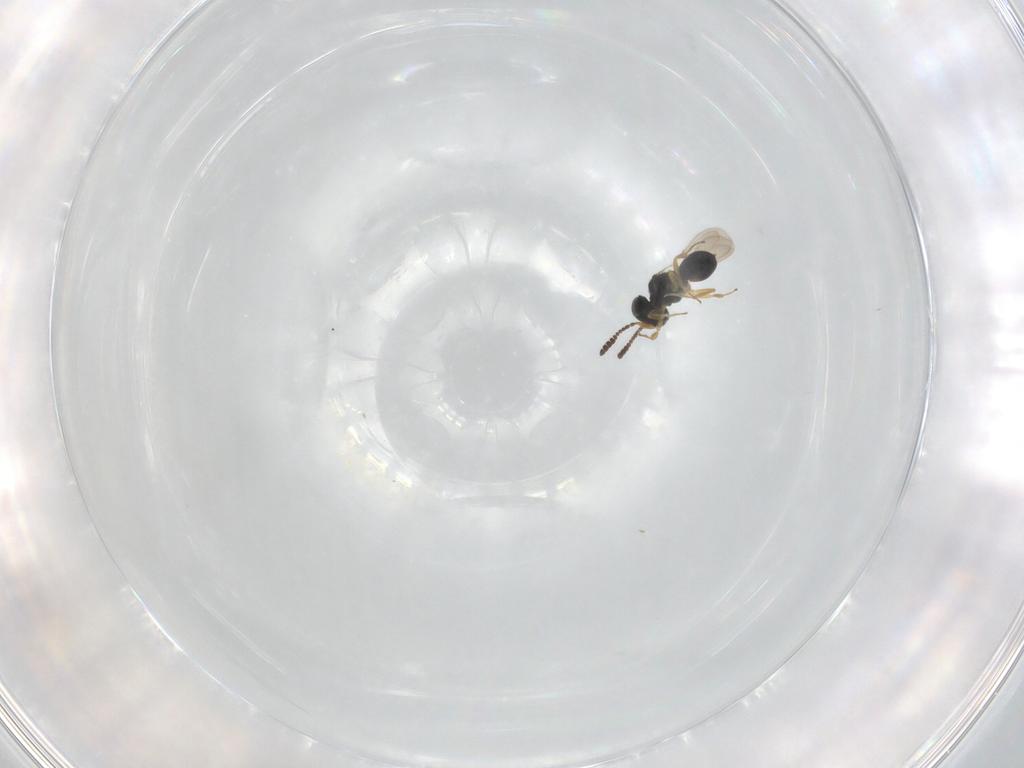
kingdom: Animalia
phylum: Arthropoda
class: Insecta
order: Hymenoptera
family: Scelionidae
